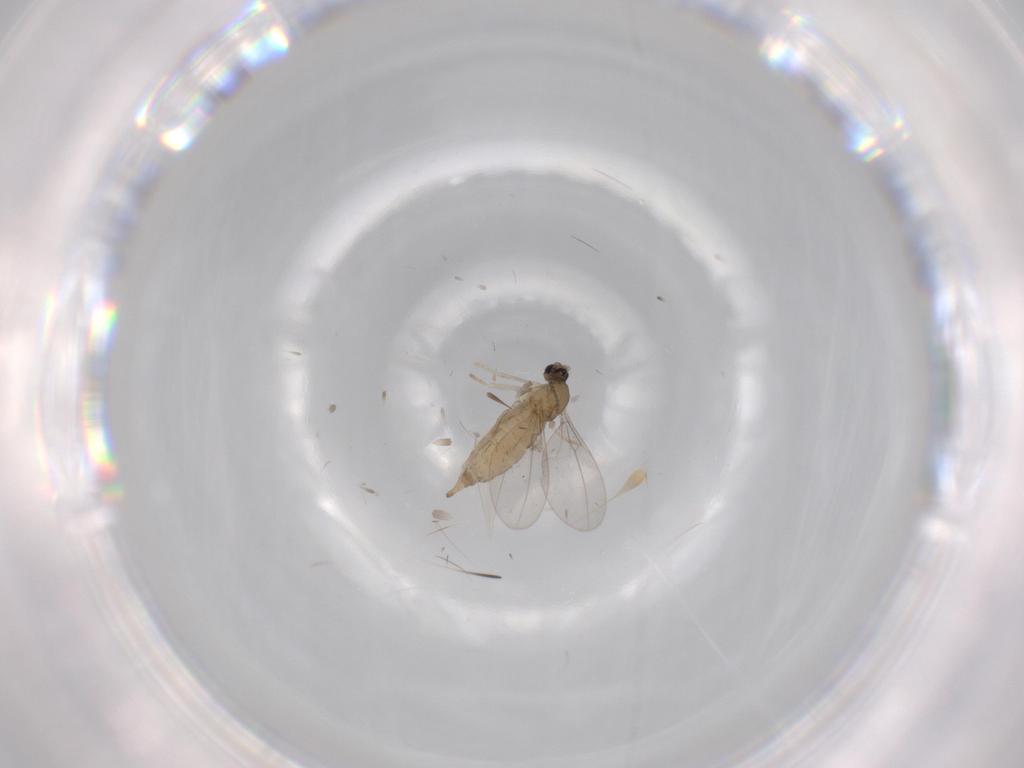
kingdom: Animalia
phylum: Arthropoda
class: Insecta
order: Diptera
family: Cecidomyiidae
